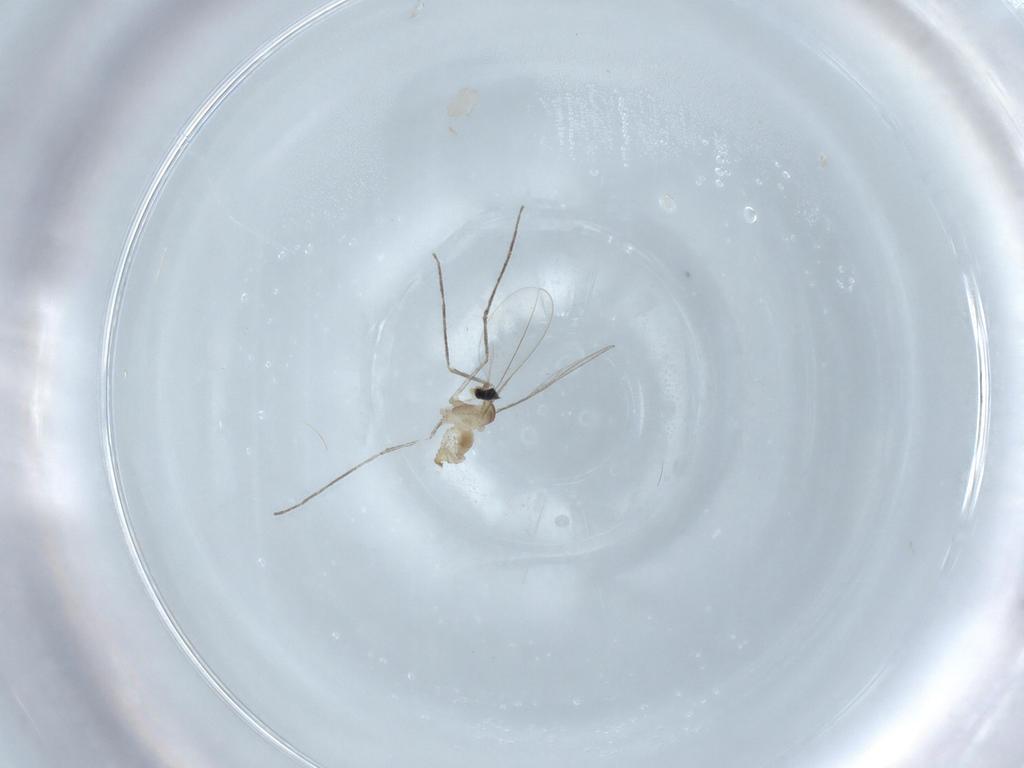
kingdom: Animalia
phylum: Arthropoda
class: Insecta
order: Diptera
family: Cecidomyiidae
